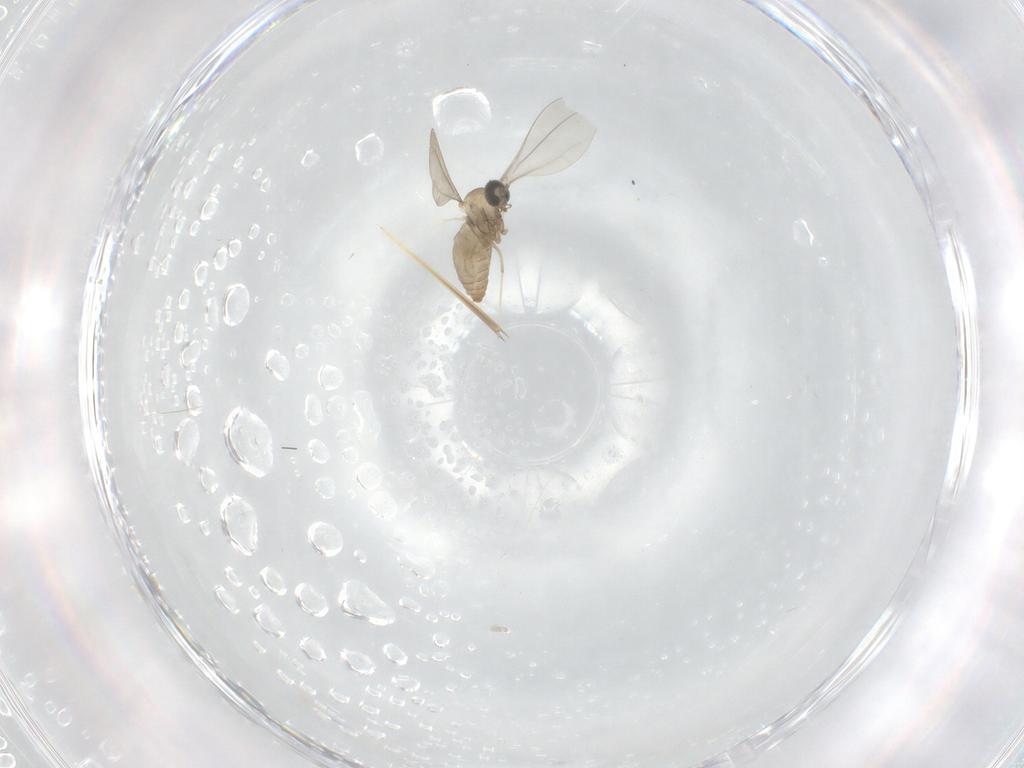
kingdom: Animalia
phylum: Arthropoda
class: Insecta
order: Diptera
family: Cecidomyiidae
